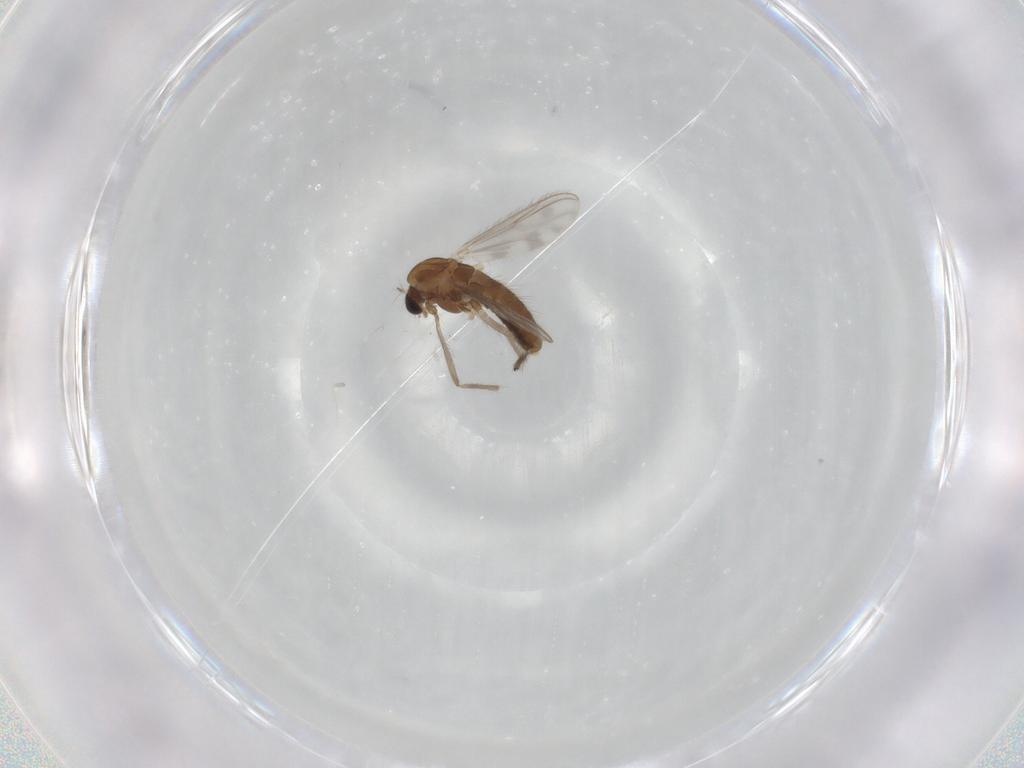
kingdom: Animalia
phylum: Arthropoda
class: Insecta
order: Diptera
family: Chironomidae
